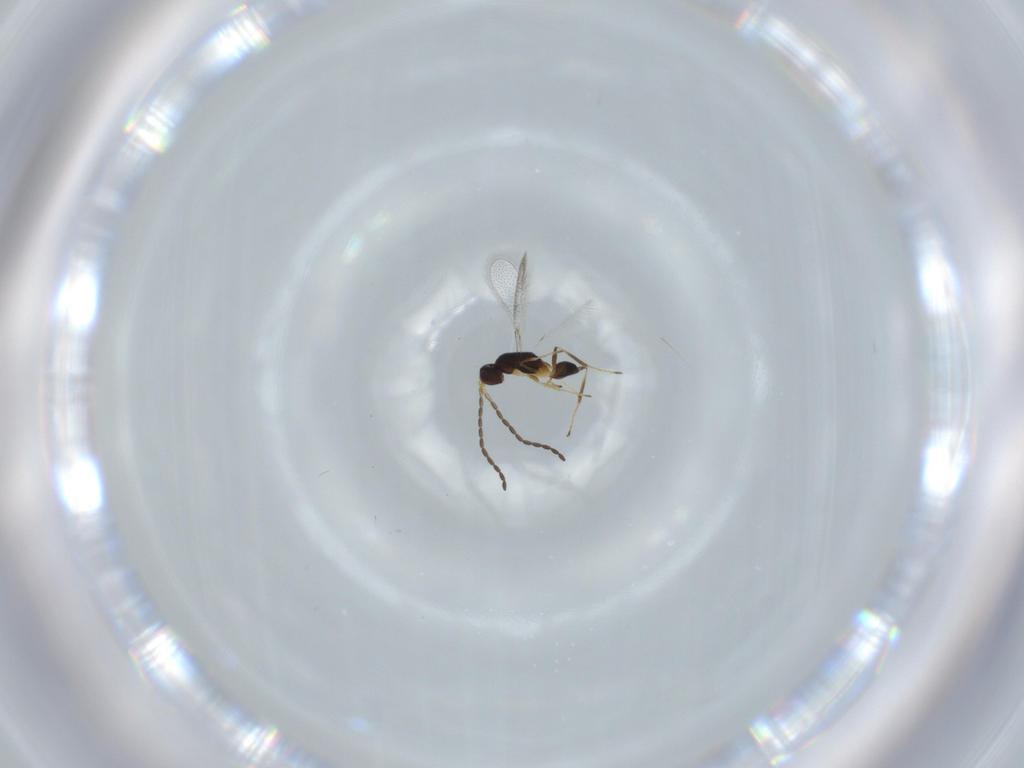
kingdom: Animalia
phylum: Arthropoda
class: Insecta
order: Hymenoptera
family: Mymaridae
